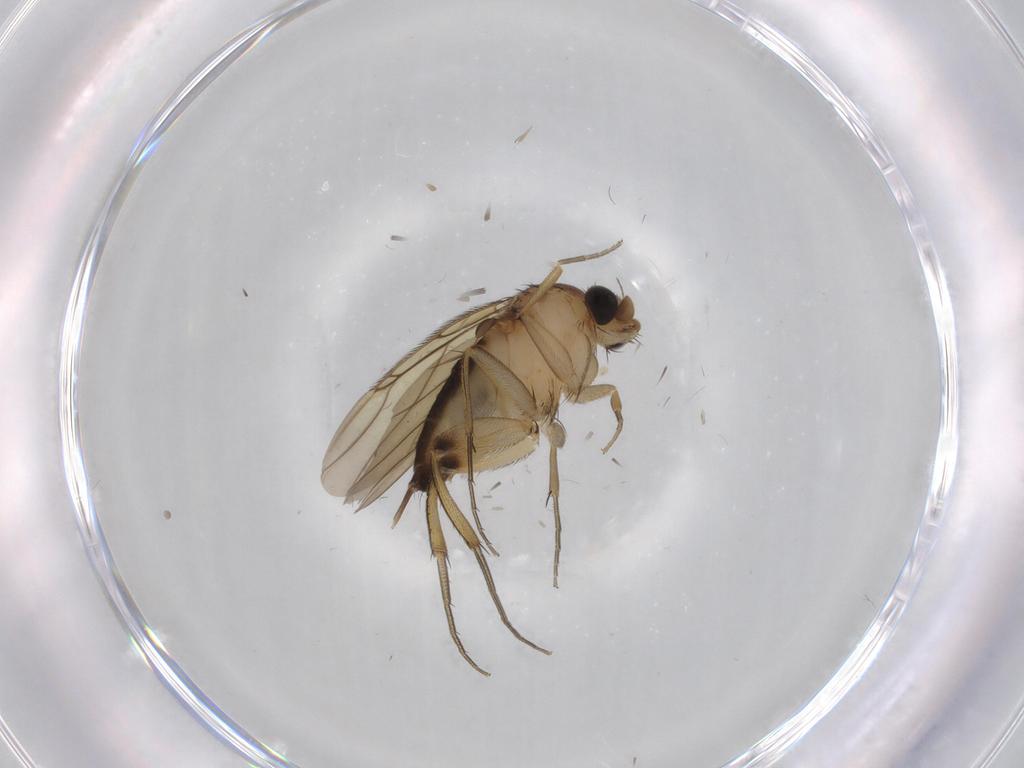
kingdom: Animalia
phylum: Arthropoda
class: Insecta
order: Diptera
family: Phoridae
